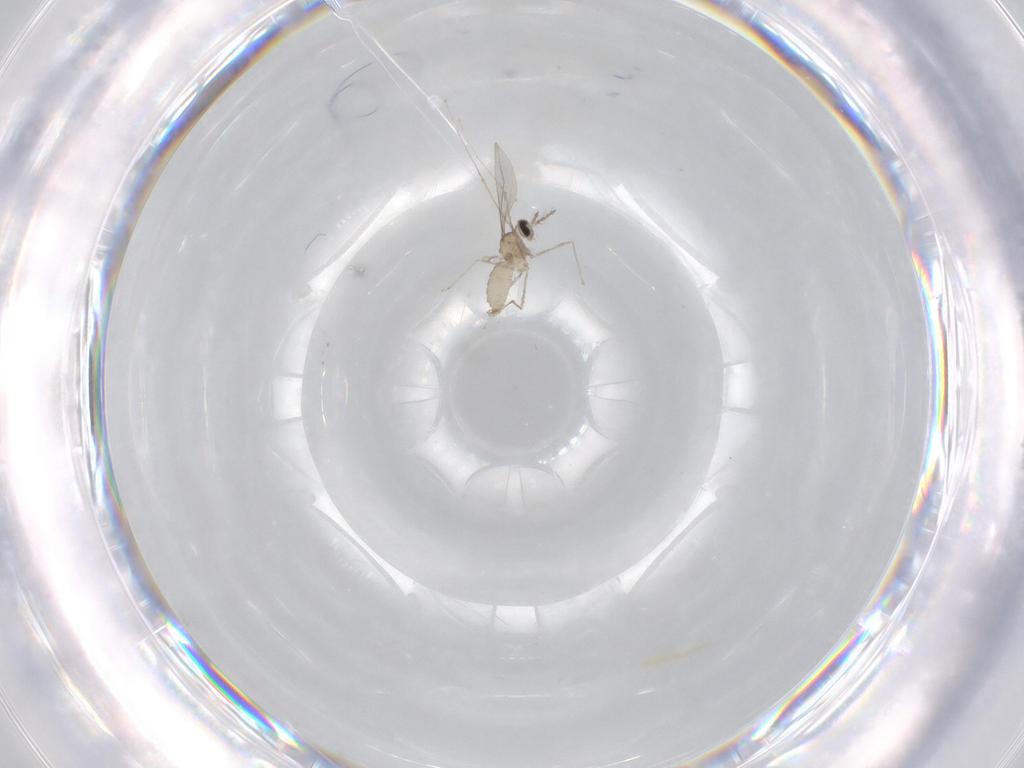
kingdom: Animalia
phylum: Arthropoda
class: Insecta
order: Diptera
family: Cecidomyiidae
